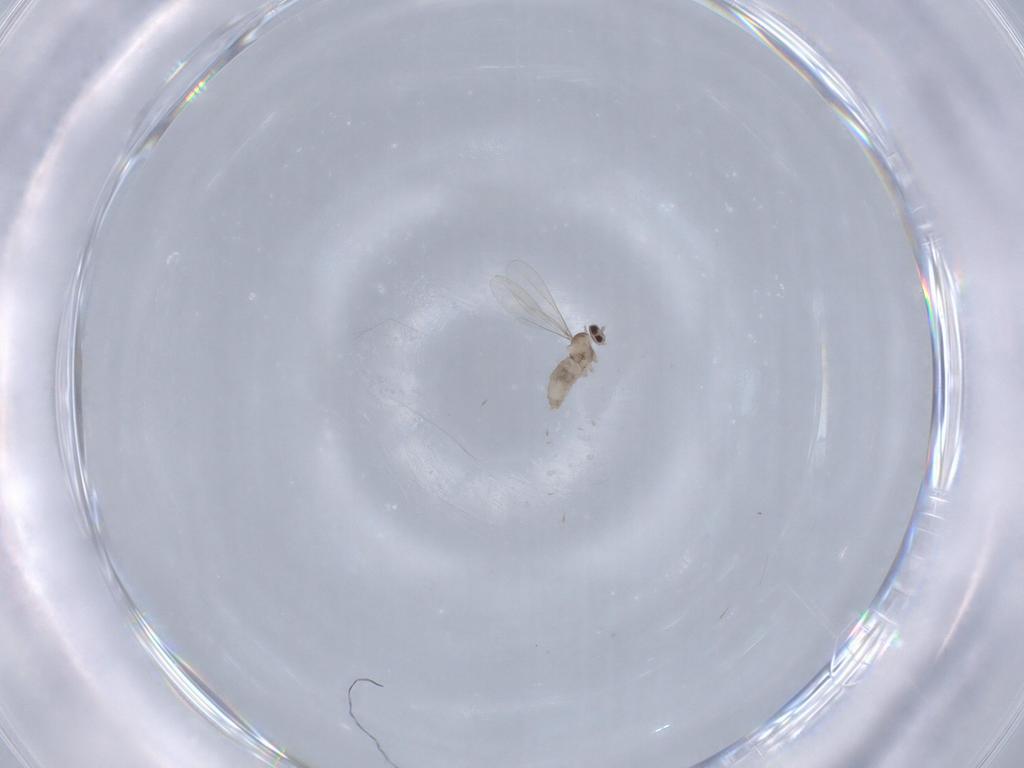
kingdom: Animalia
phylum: Arthropoda
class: Insecta
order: Diptera
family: Cecidomyiidae
